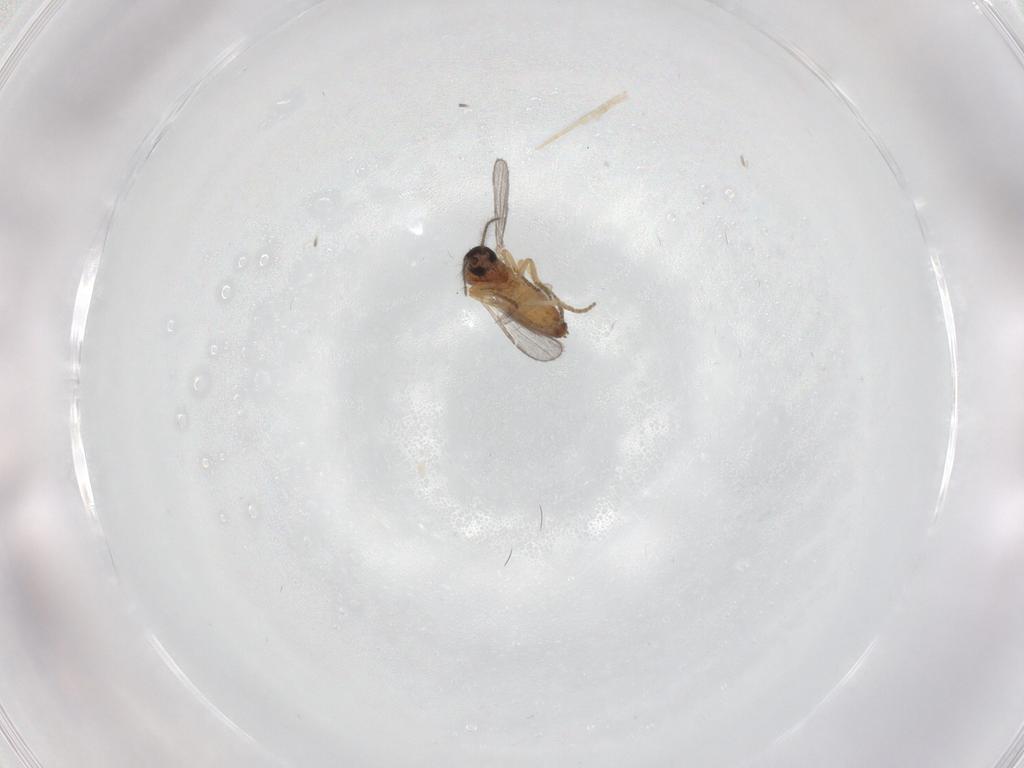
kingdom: Animalia
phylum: Arthropoda
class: Insecta
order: Diptera
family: Ceratopogonidae
